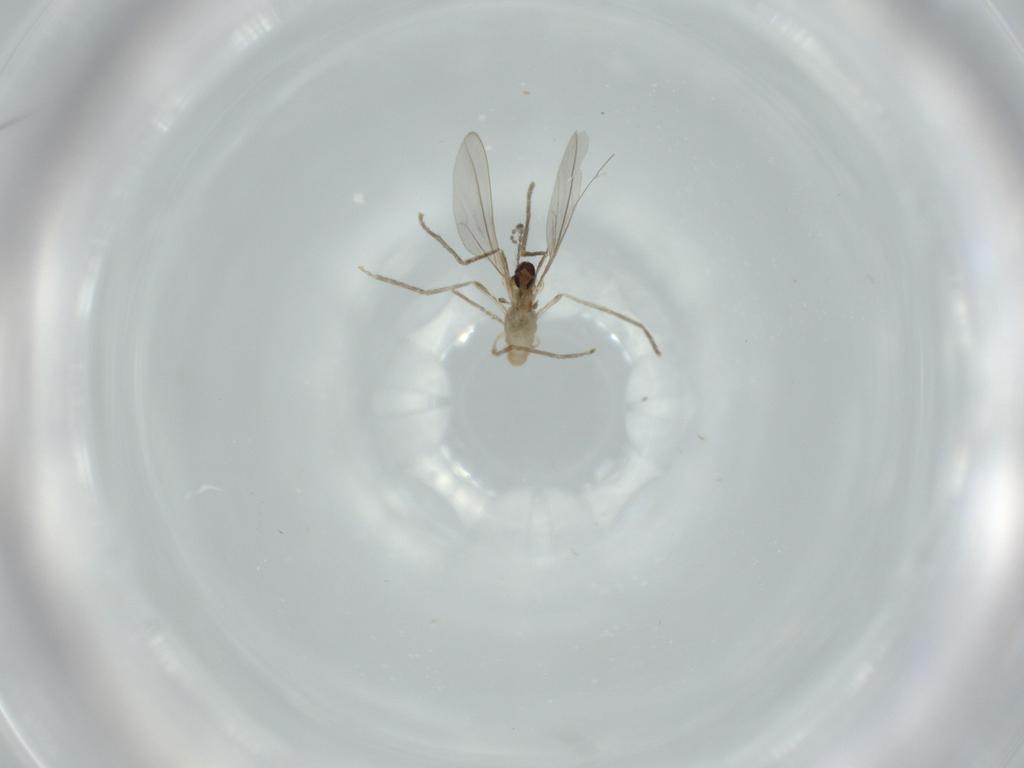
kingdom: Animalia
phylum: Arthropoda
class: Insecta
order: Diptera
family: Cecidomyiidae
